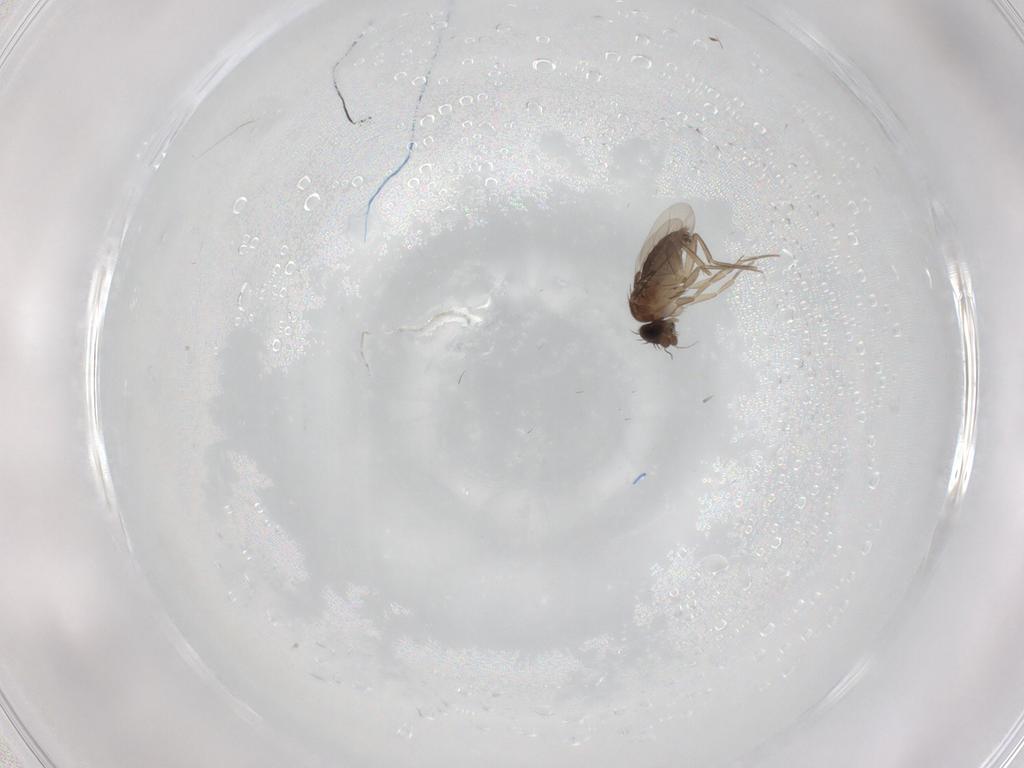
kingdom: Animalia
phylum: Arthropoda
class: Insecta
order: Diptera
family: Phoridae
